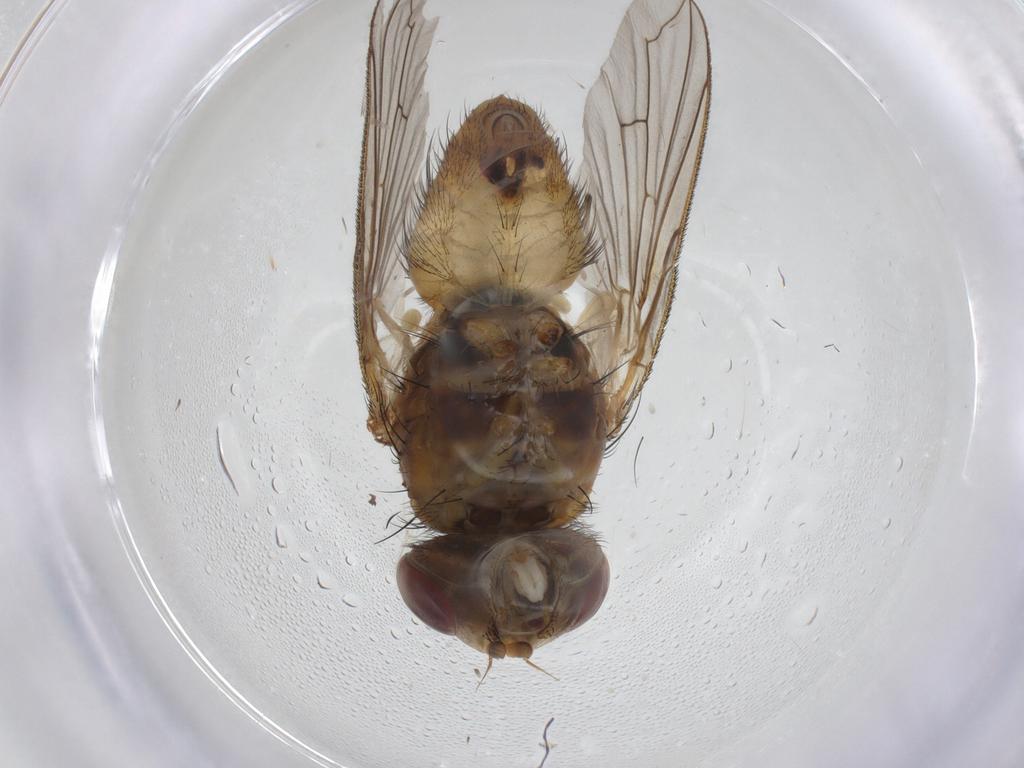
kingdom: Animalia
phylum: Arthropoda
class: Insecta
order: Diptera
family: Tachinidae
